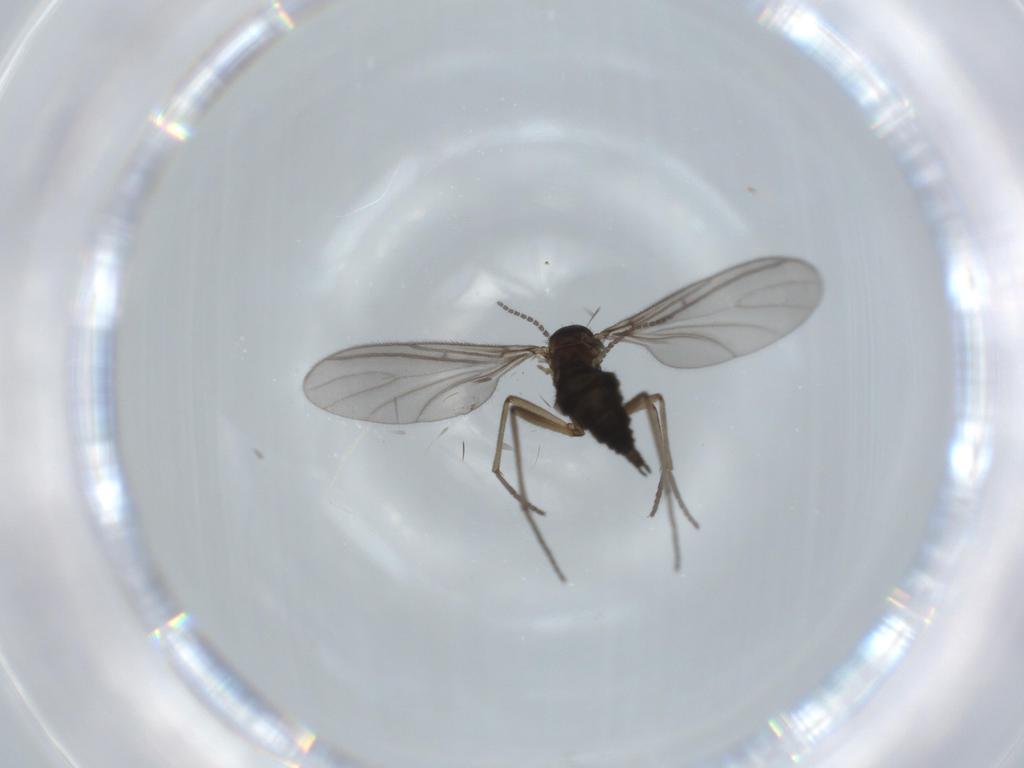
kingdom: Animalia
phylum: Arthropoda
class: Insecta
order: Diptera
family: Sciaridae
